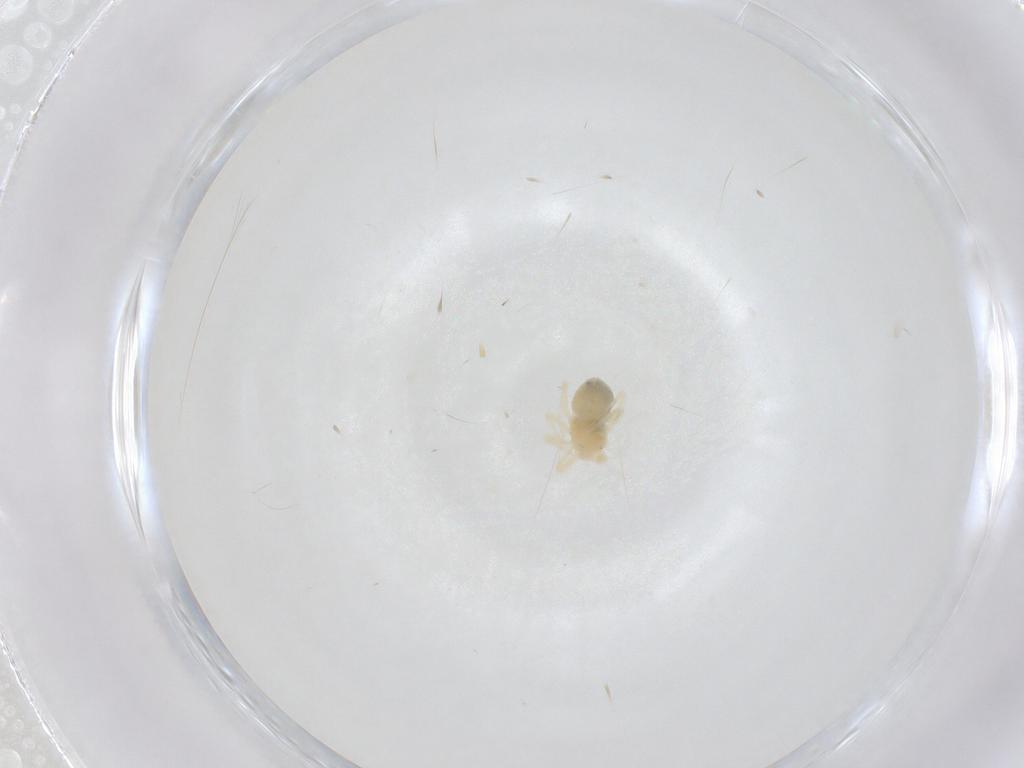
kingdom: Animalia
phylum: Arthropoda
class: Arachnida
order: Trombidiformes
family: Anystidae
